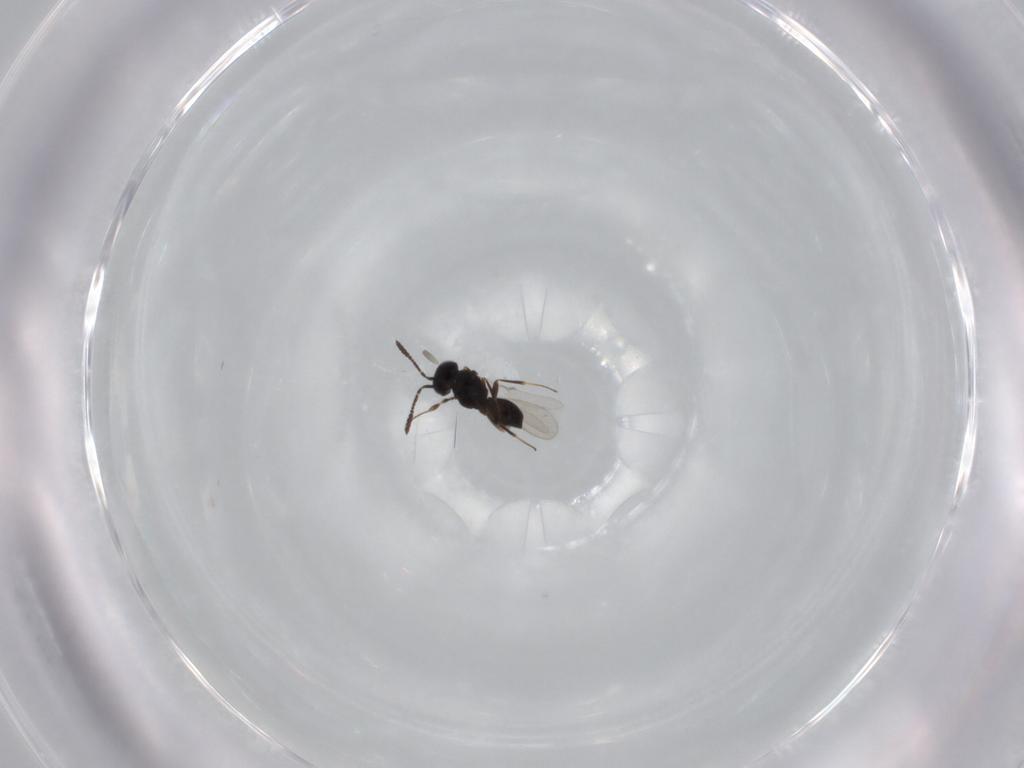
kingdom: Animalia
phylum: Arthropoda
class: Insecta
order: Hymenoptera
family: Scelionidae
